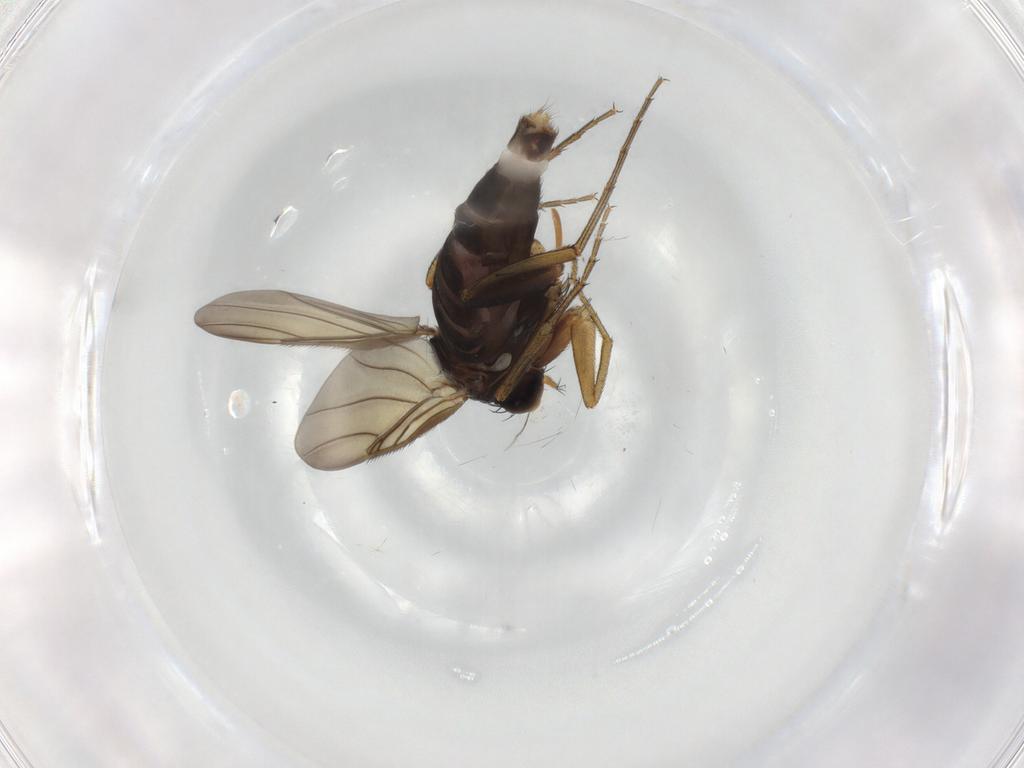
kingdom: Animalia
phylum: Arthropoda
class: Insecta
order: Diptera
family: Phoridae
